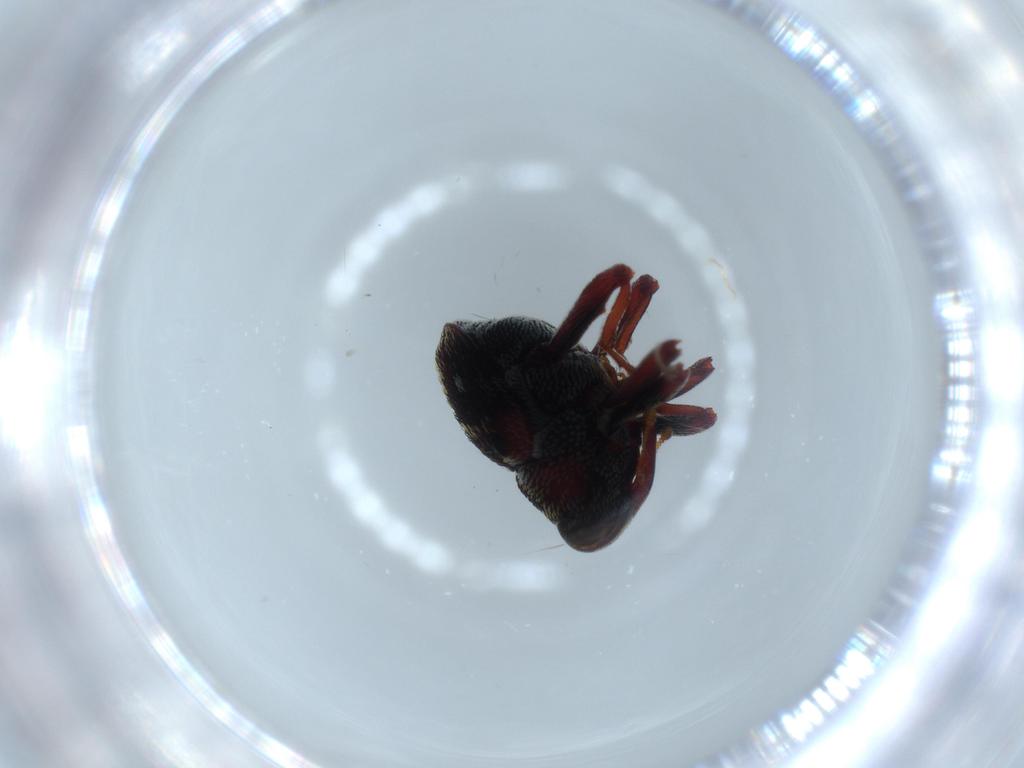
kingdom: Animalia
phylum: Arthropoda
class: Insecta
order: Coleoptera
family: Curculionidae
